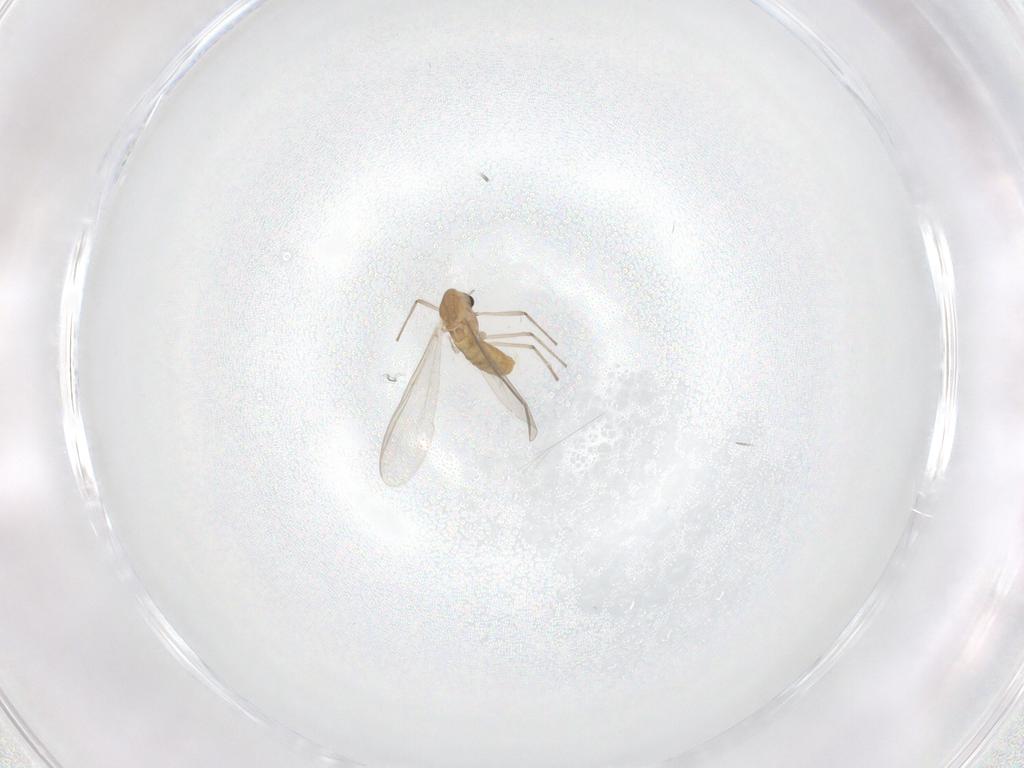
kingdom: Animalia
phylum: Arthropoda
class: Insecta
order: Diptera
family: Chironomidae
